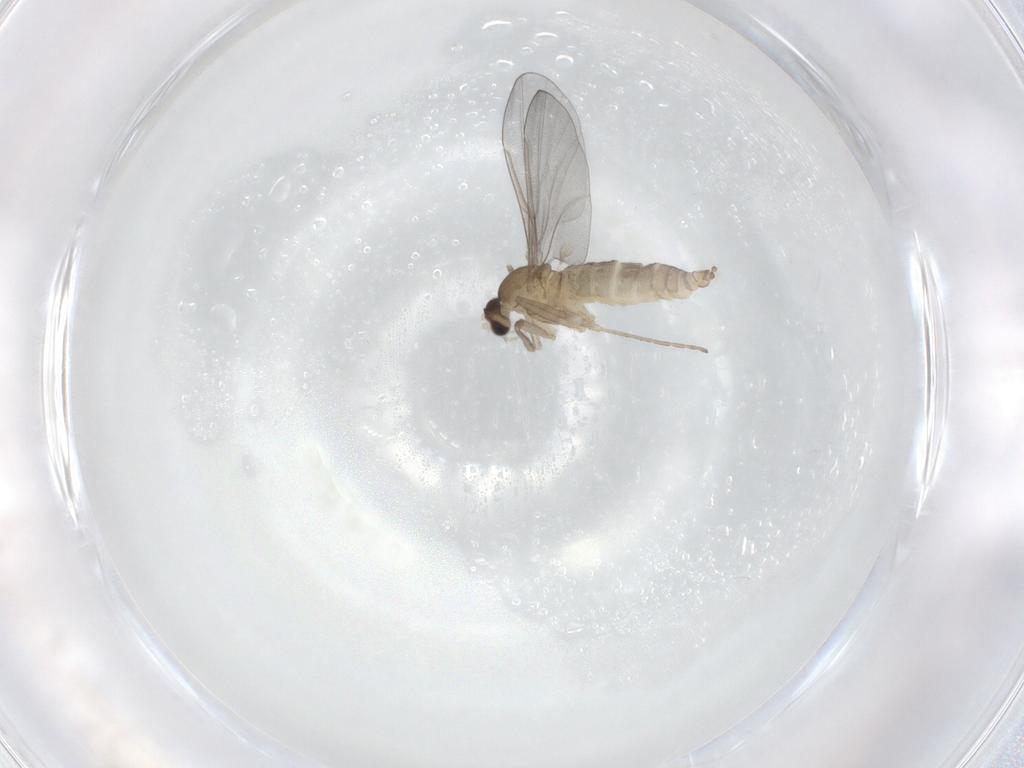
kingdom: Animalia
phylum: Arthropoda
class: Insecta
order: Diptera
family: Cecidomyiidae
